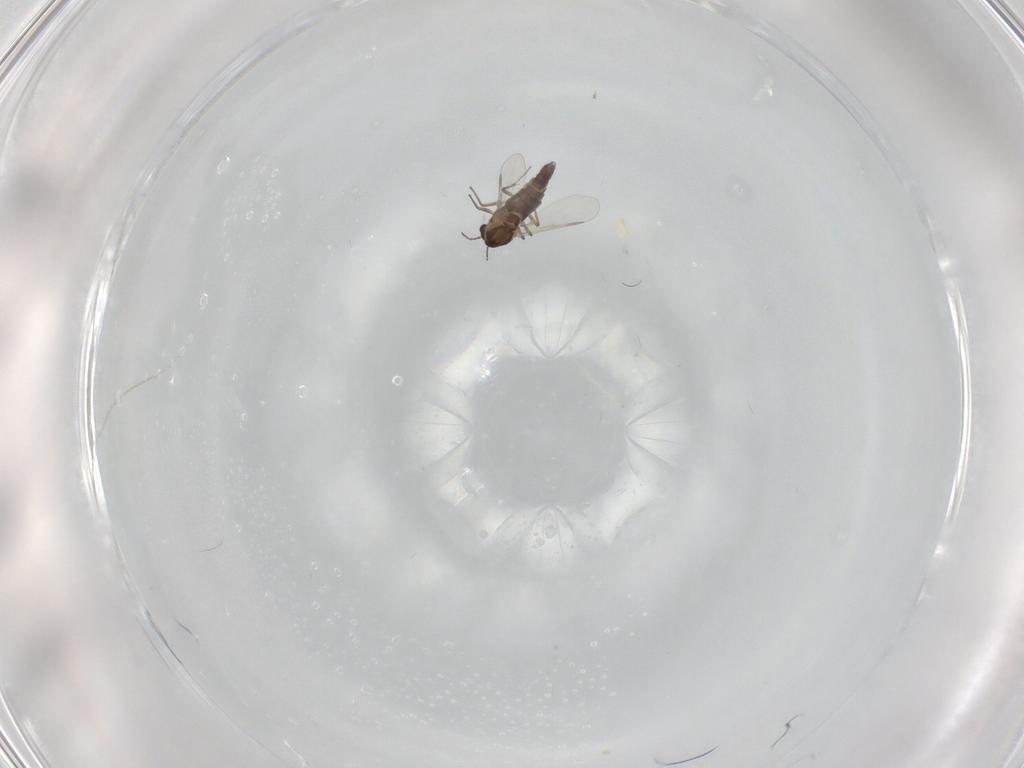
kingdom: Animalia
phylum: Arthropoda
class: Insecta
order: Diptera
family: Chironomidae
